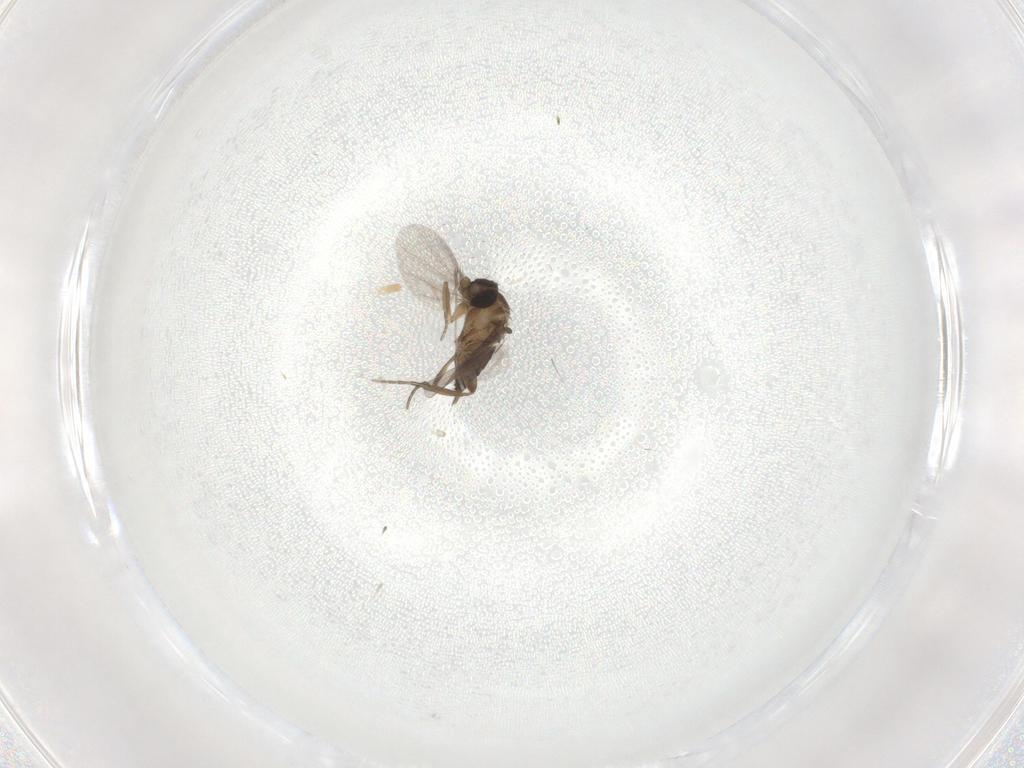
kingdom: Animalia
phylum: Arthropoda
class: Insecta
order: Diptera
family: Phoridae
